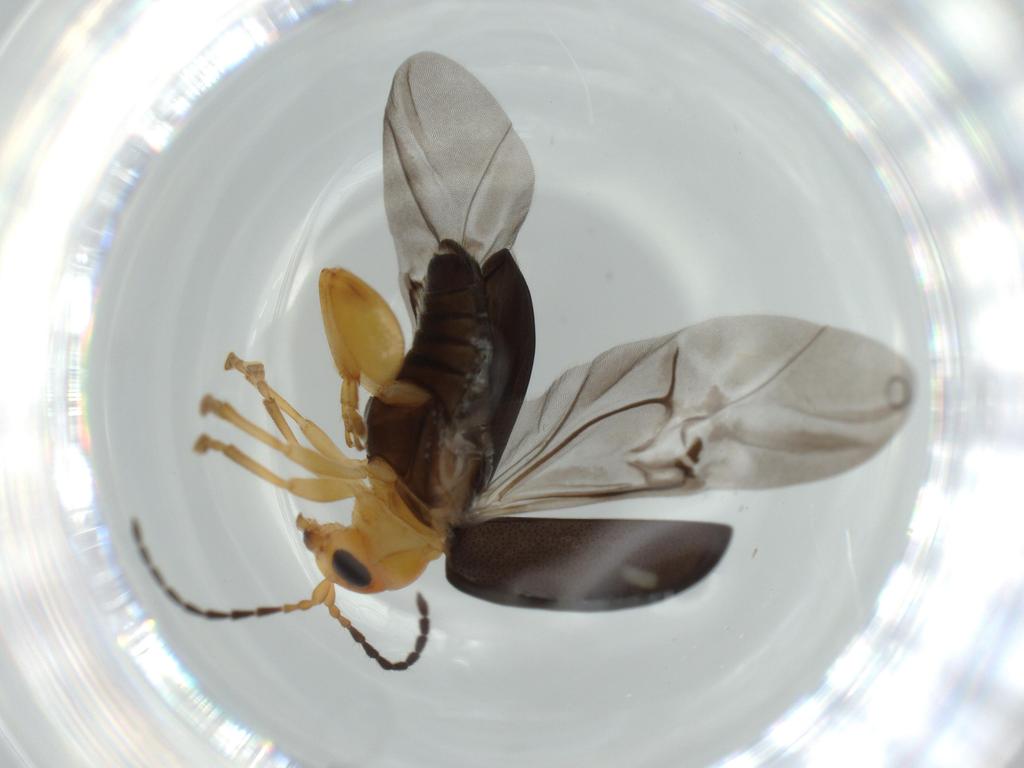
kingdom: Animalia
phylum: Arthropoda
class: Insecta
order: Coleoptera
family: Chrysomelidae
